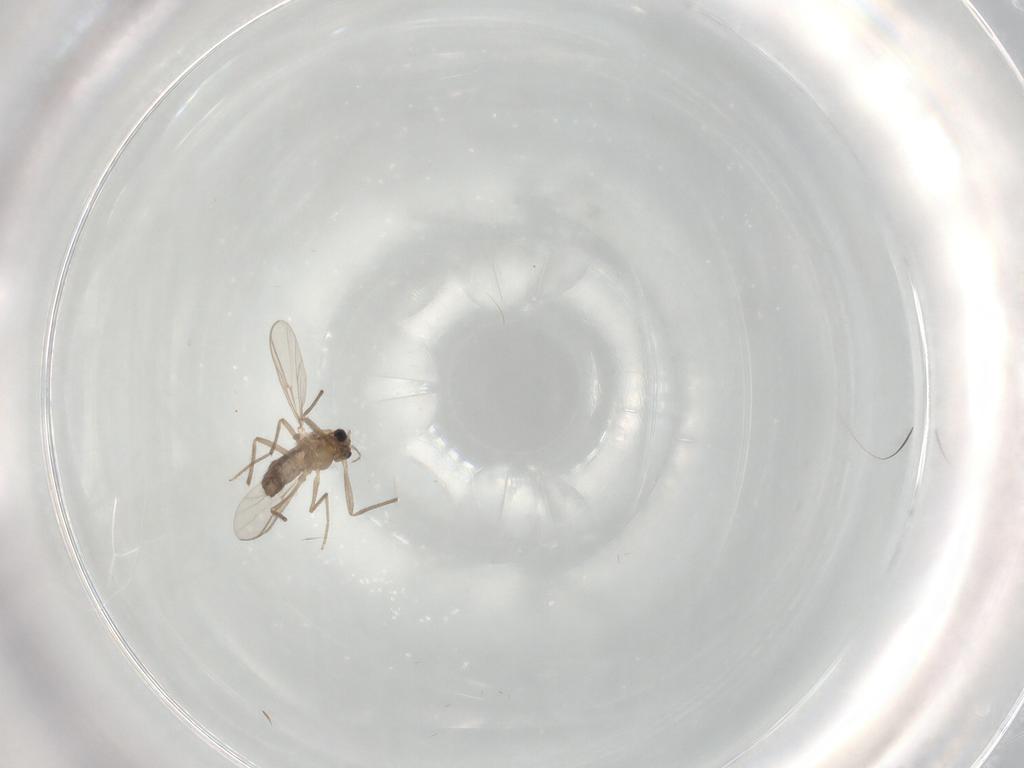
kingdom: Animalia
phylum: Arthropoda
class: Insecta
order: Diptera
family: Chironomidae
